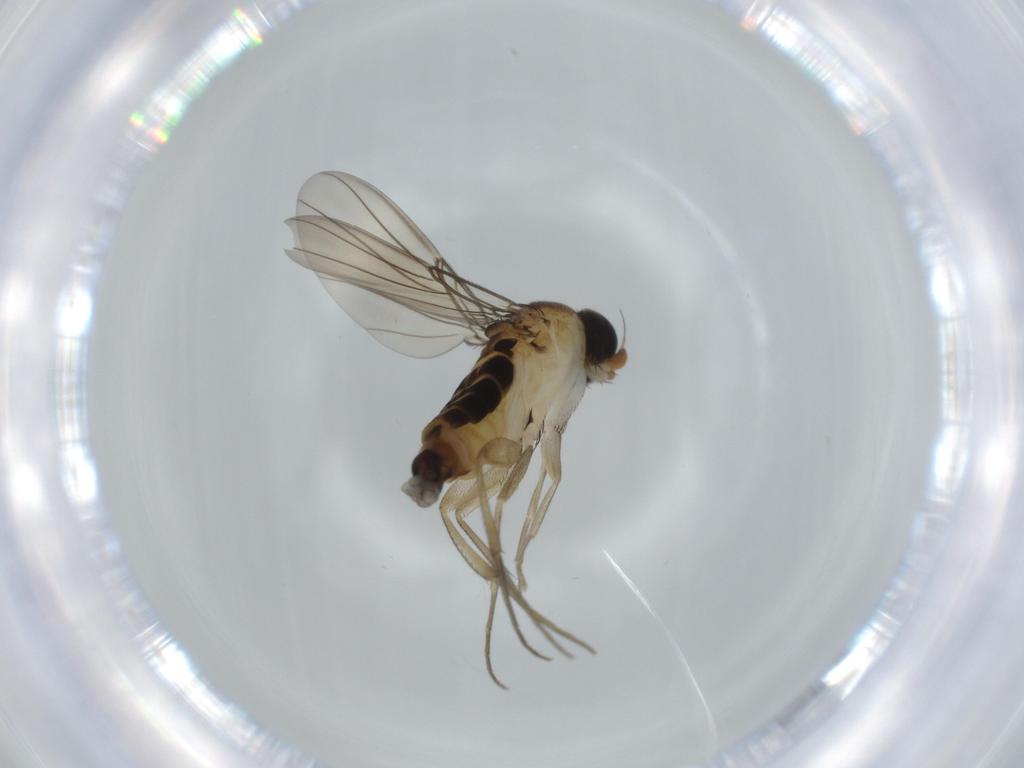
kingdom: Animalia
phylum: Arthropoda
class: Insecta
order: Diptera
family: Phoridae
